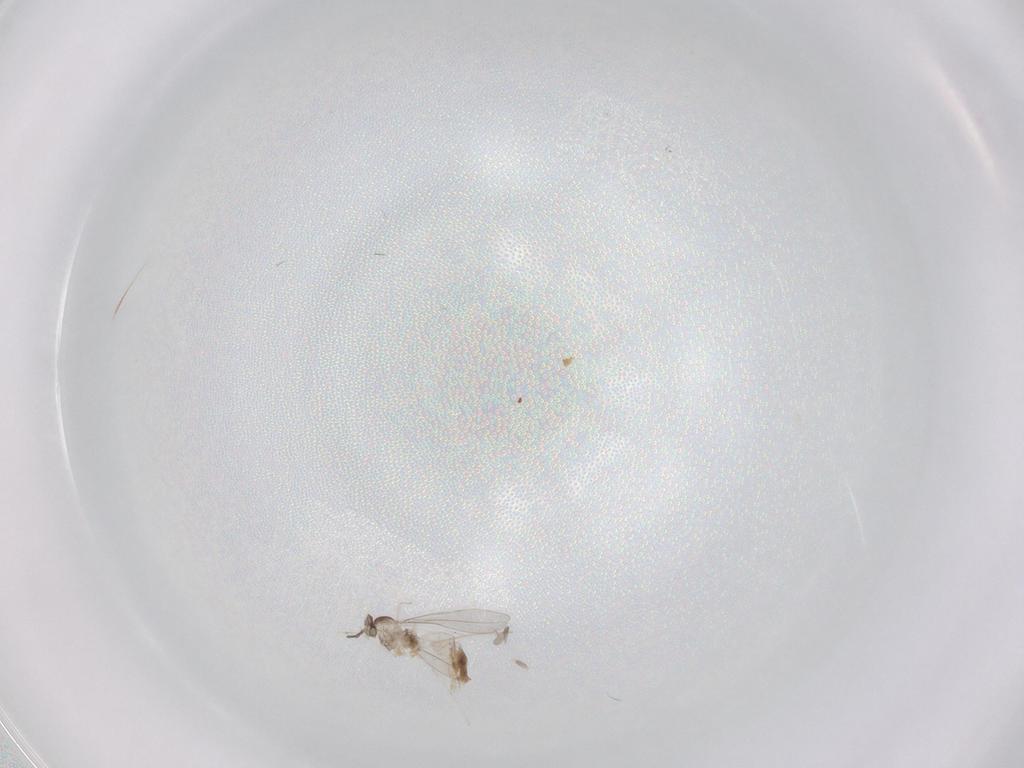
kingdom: Animalia
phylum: Arthropoda
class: Insecta
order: Diptera
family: Cecidomyiidae
